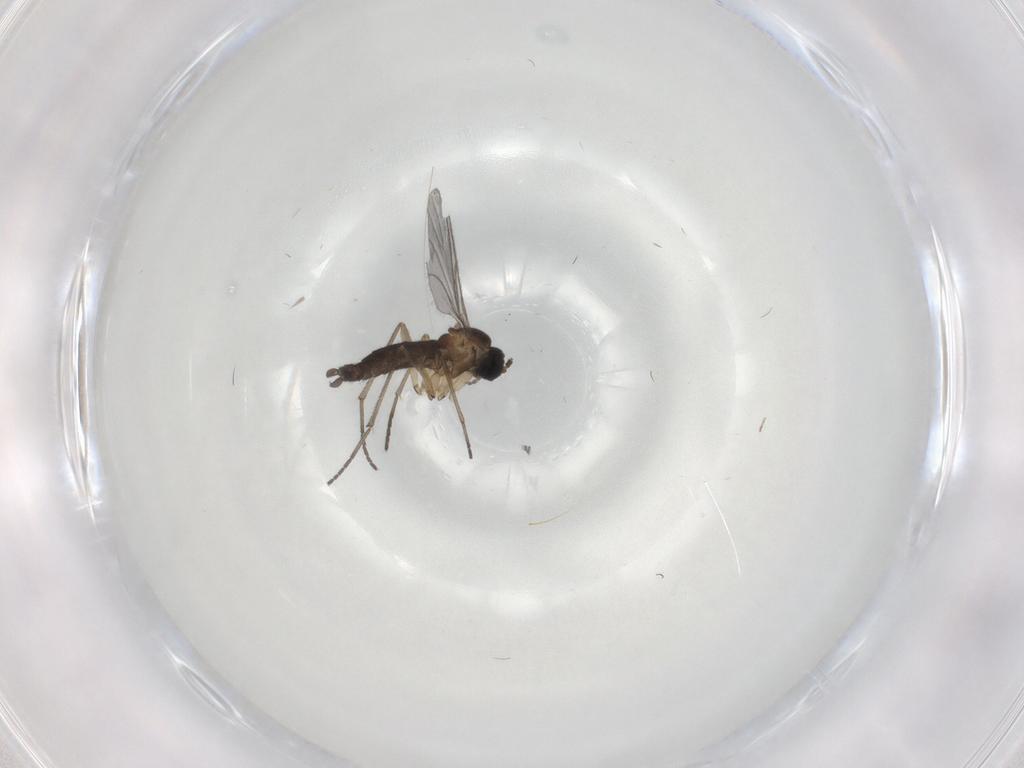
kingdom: Animalia
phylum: Arthropoda
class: Insecta
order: Diptera
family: Sciaridae
